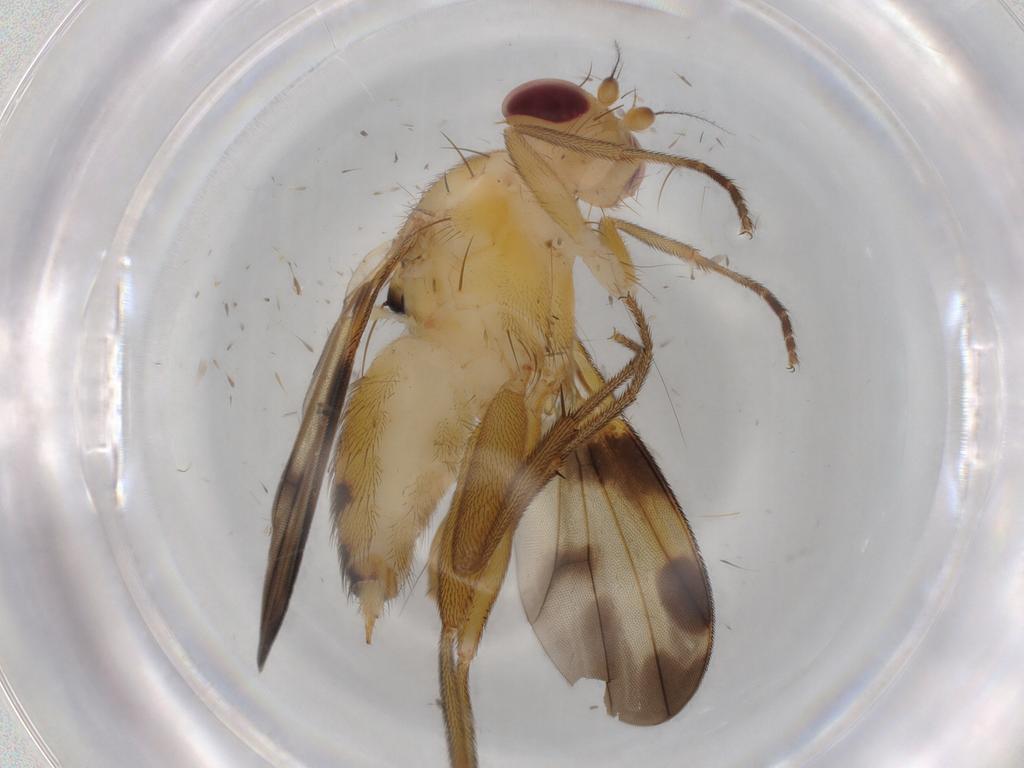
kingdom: Animalia
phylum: Arthropoda
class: Insecta
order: Diptera
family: Clusiidae
